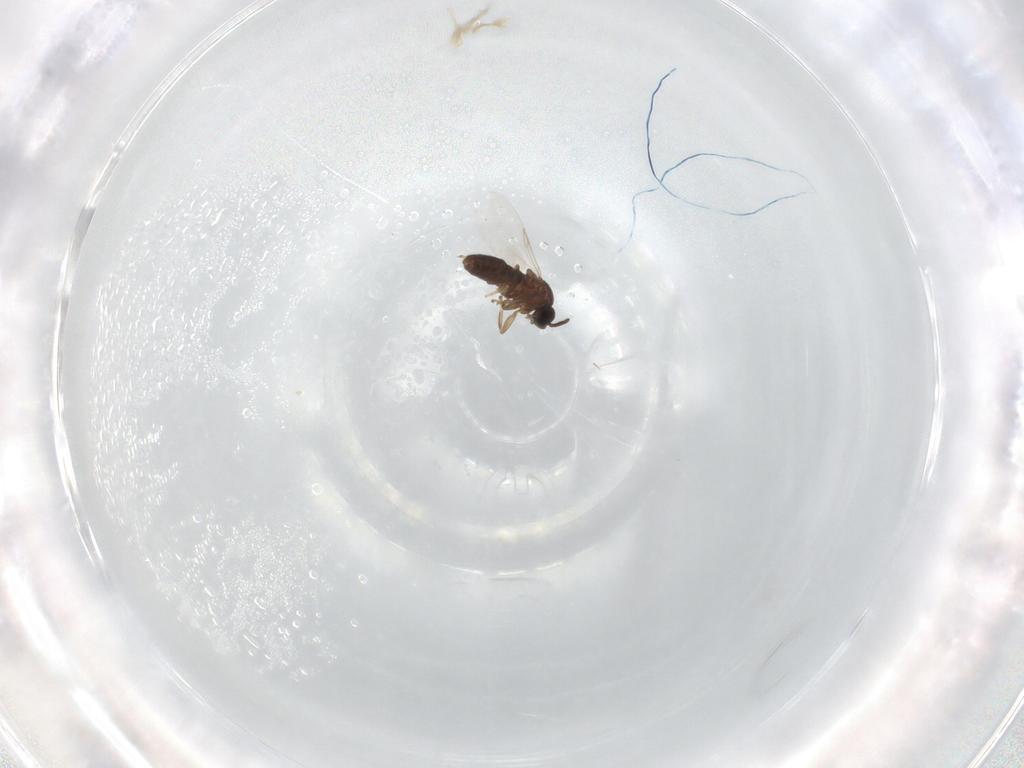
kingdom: Animalia
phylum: Arthropoda
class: Insecta
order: Diptera
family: Scatopsidae
